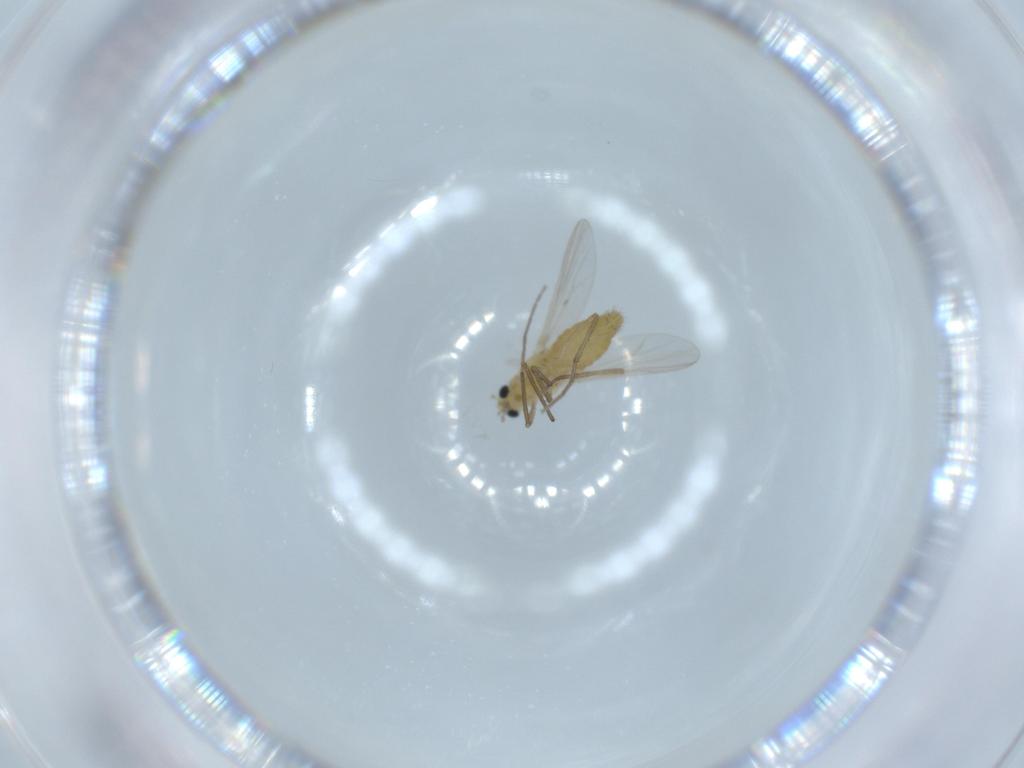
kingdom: Animalia
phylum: Arthropoda
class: Insecta
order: Diptera
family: Chironomidae
